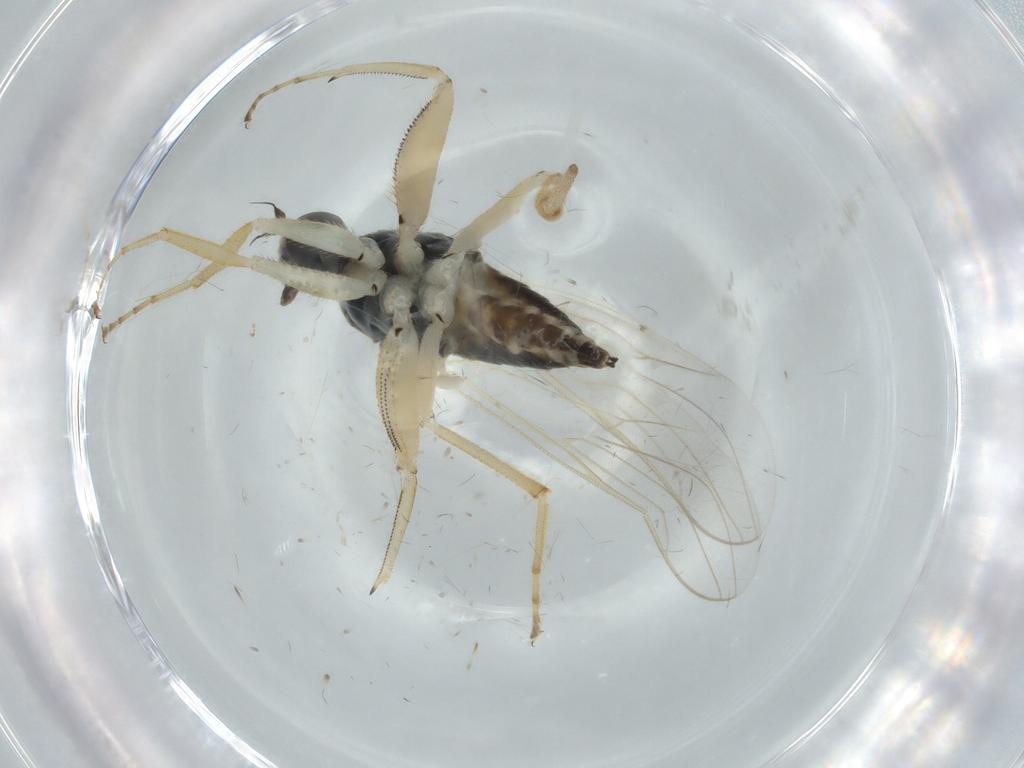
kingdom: Animalia
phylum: Arthropoda
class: Insecta
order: Diptera
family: Hybotidae
